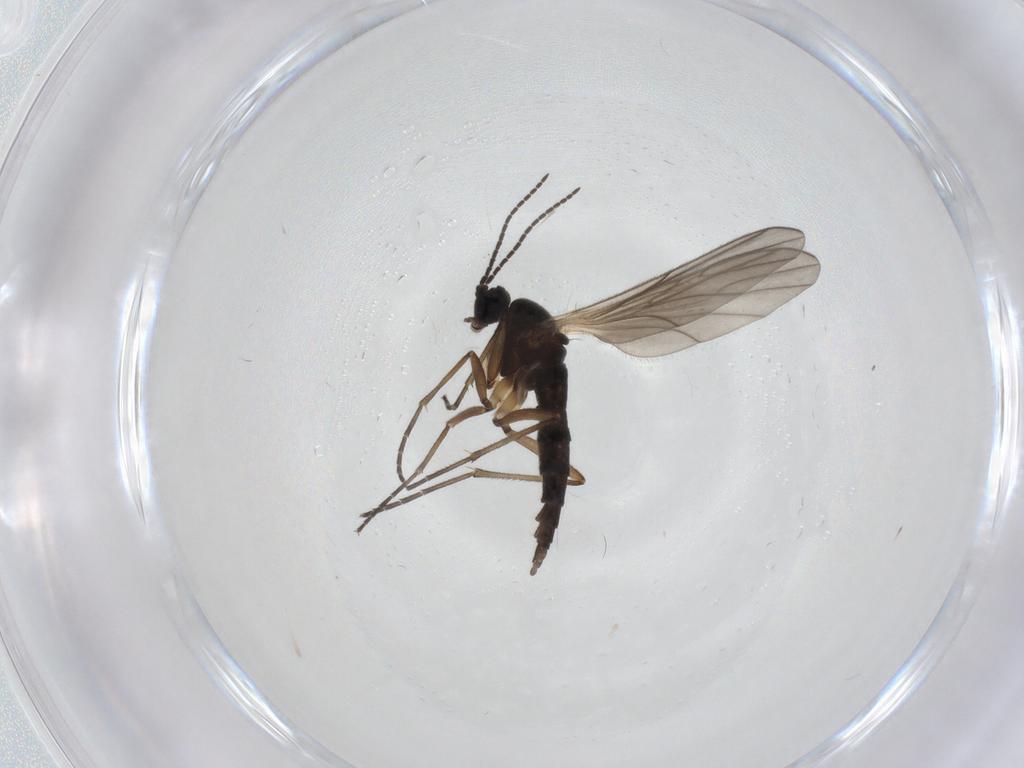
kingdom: Animalia
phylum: Arthropoda
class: Insecta
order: Diptera
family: Sciaridae
